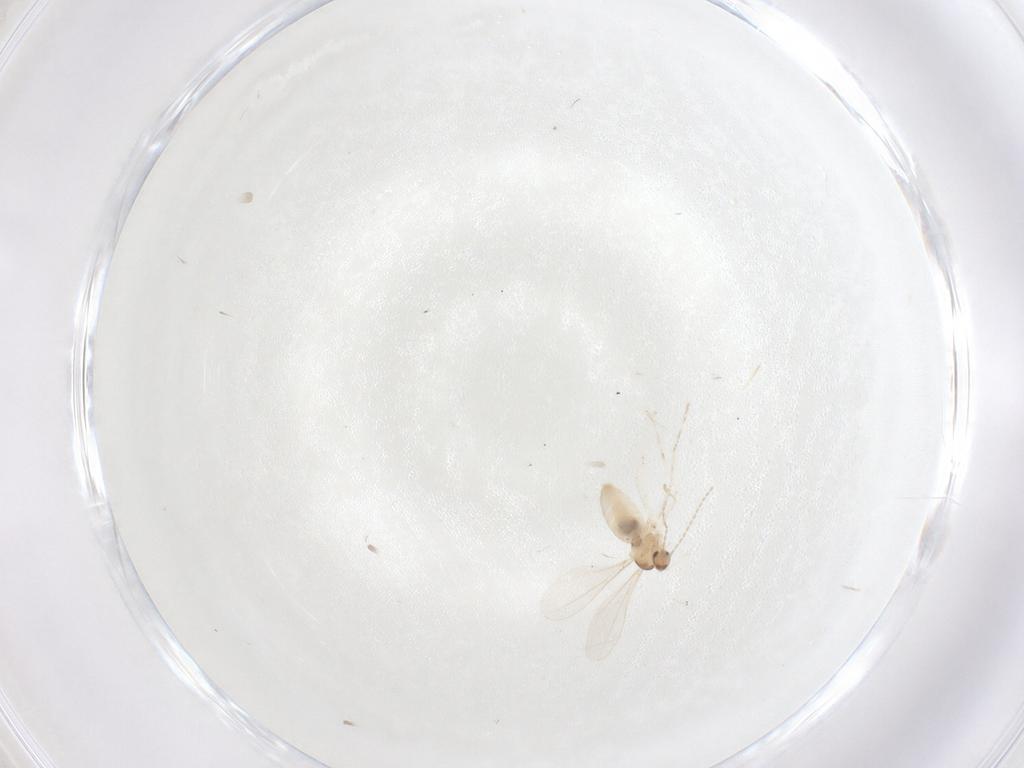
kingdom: Animalia
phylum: Arthropoda
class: Insecta
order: Diptera
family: Cecidomyiidae
